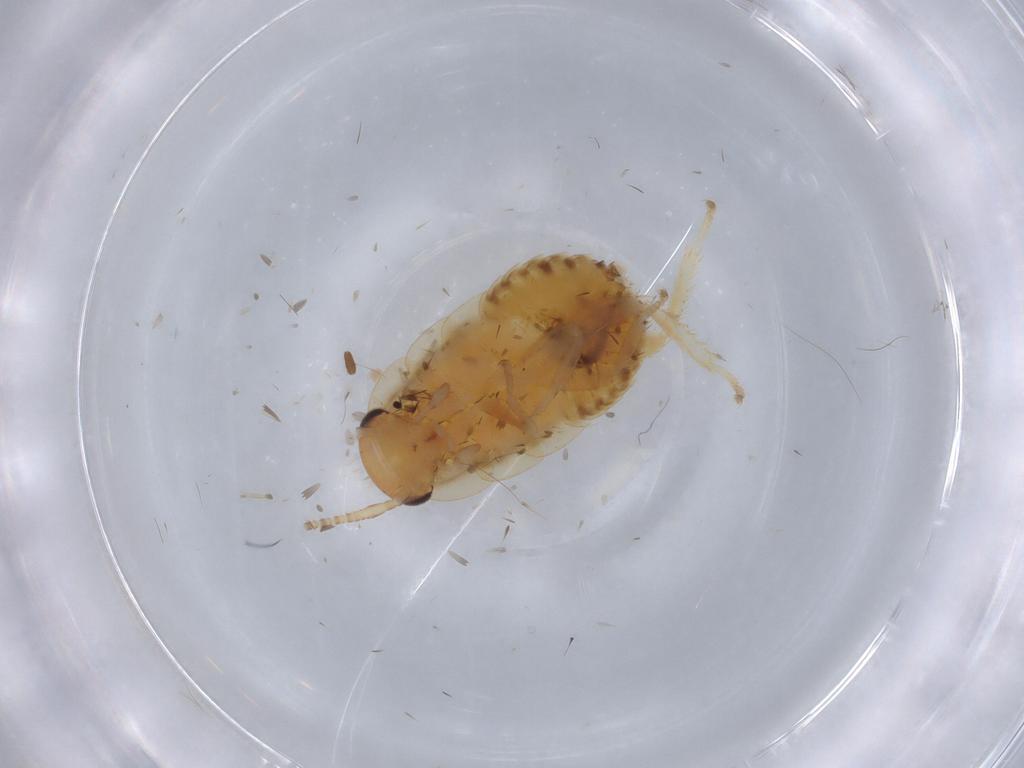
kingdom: Animalia
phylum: Arthropoda
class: Insecta
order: Blattodea
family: Ectobiidae
